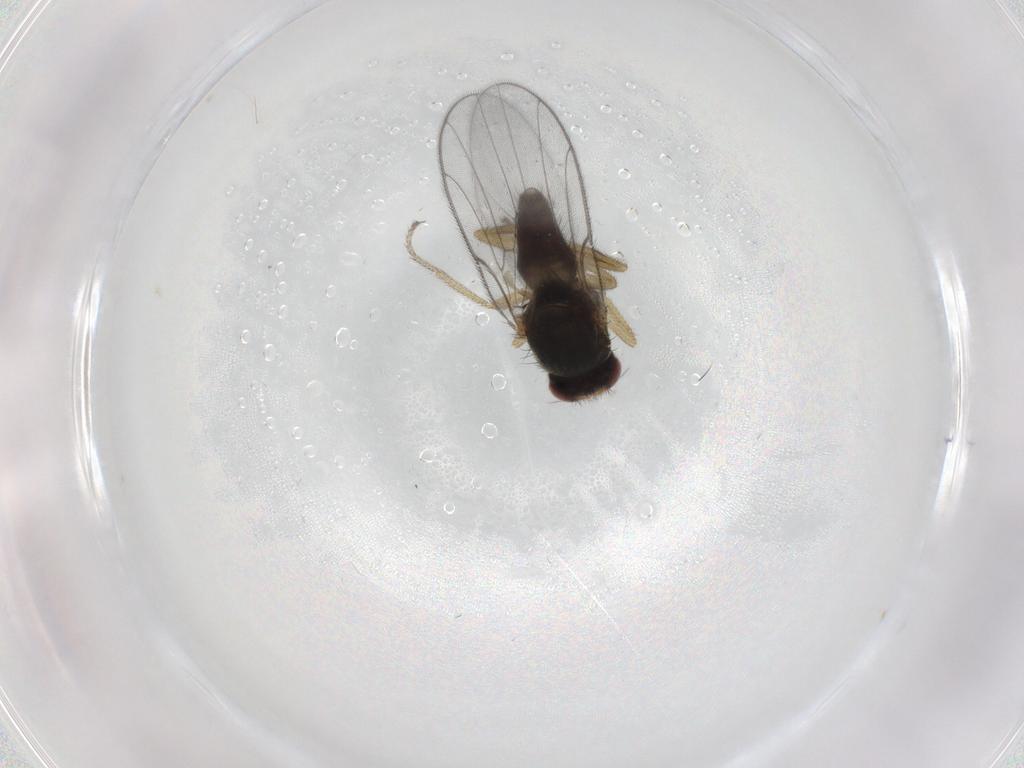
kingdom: Animalia
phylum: Arthropoda
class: Insecta
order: Diptera
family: Chloropidae
